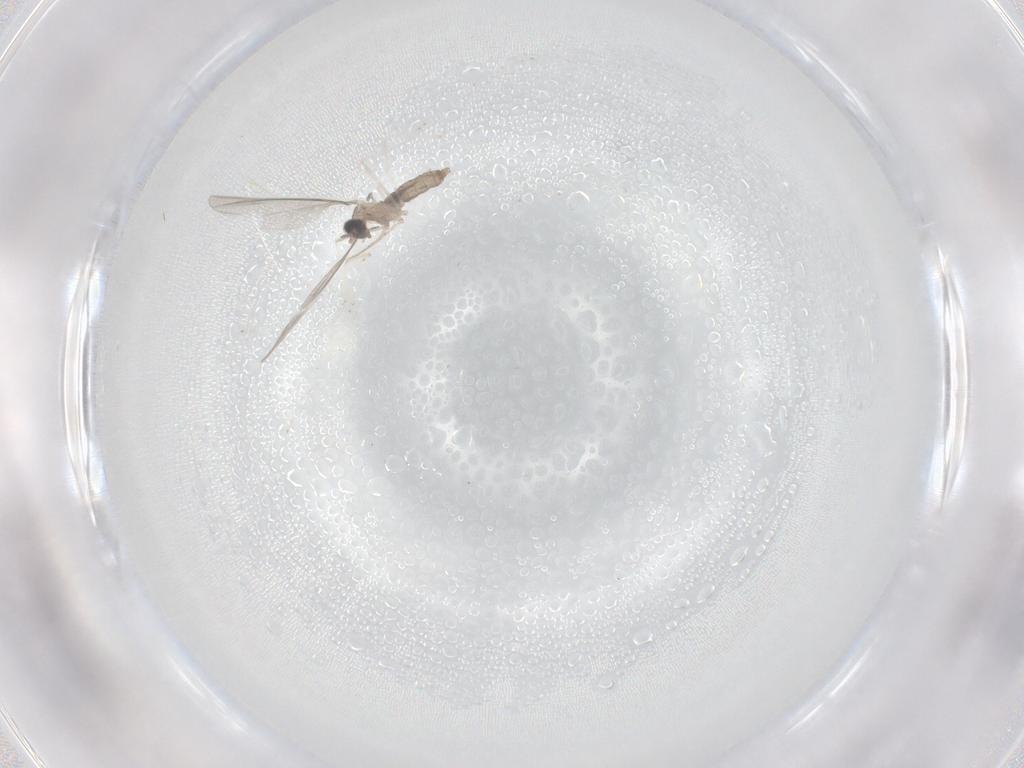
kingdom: Animalia
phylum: Arthropoda
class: Insecta
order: Diptera
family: Cecidomyiidae
